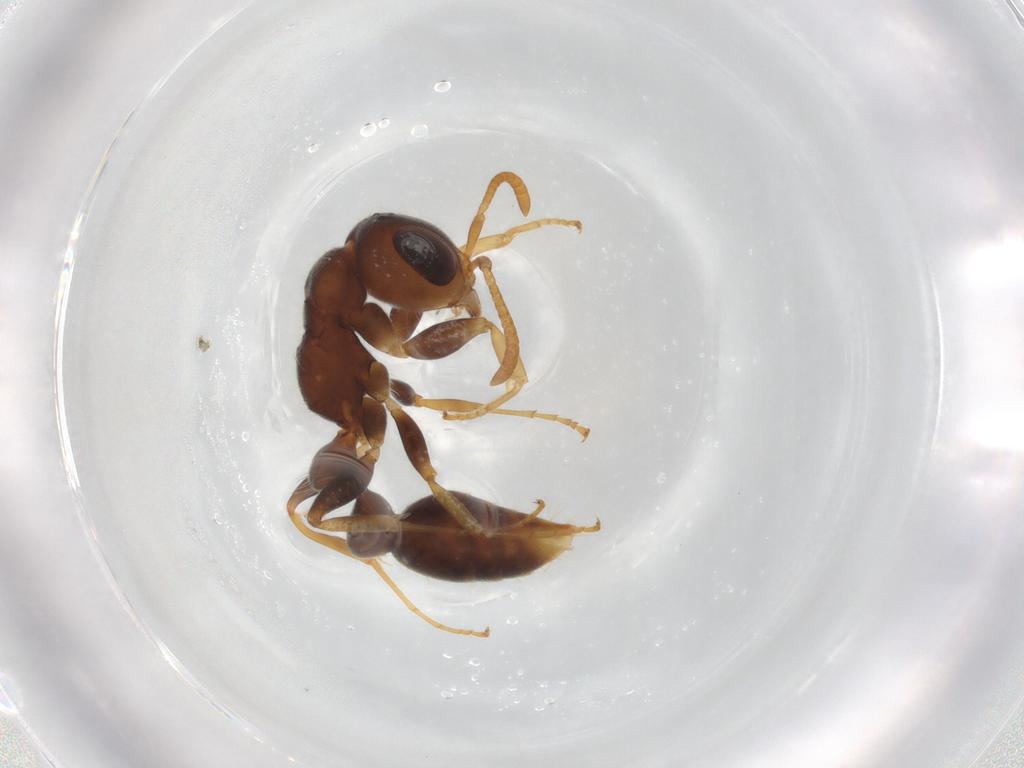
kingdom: Animalia
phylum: Arthropoda
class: Insecta
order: Hymenoptera
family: Formicidae
